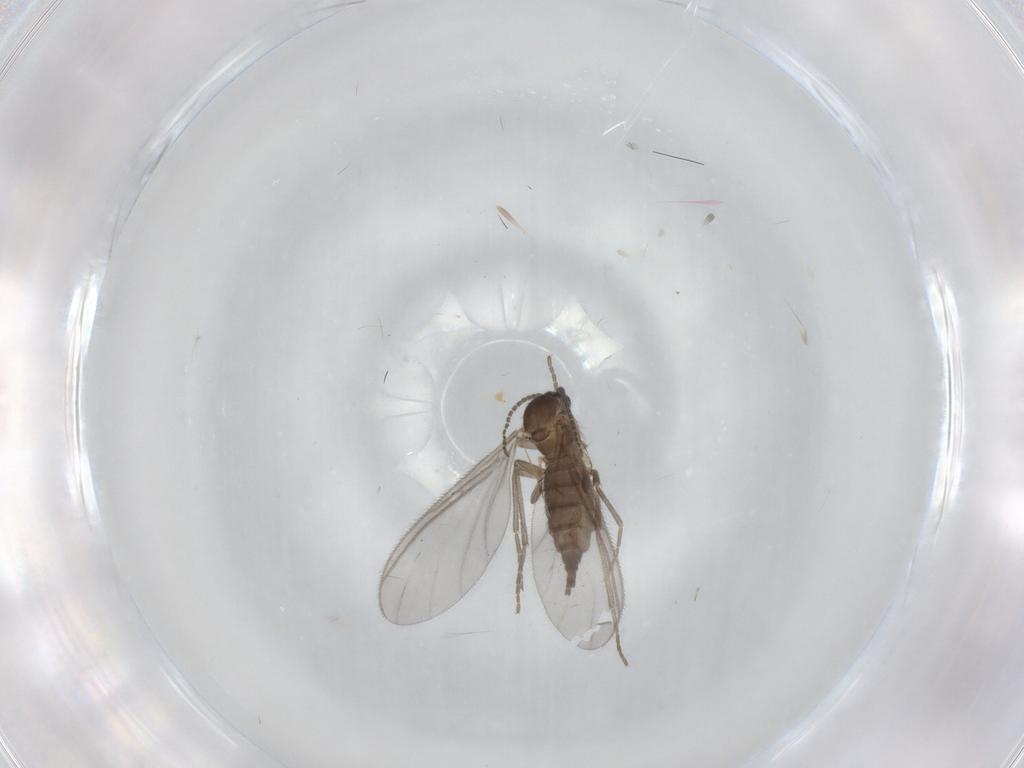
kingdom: Animalia
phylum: Arthropoda
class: Insecta
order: Diptera
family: Sciaridae
